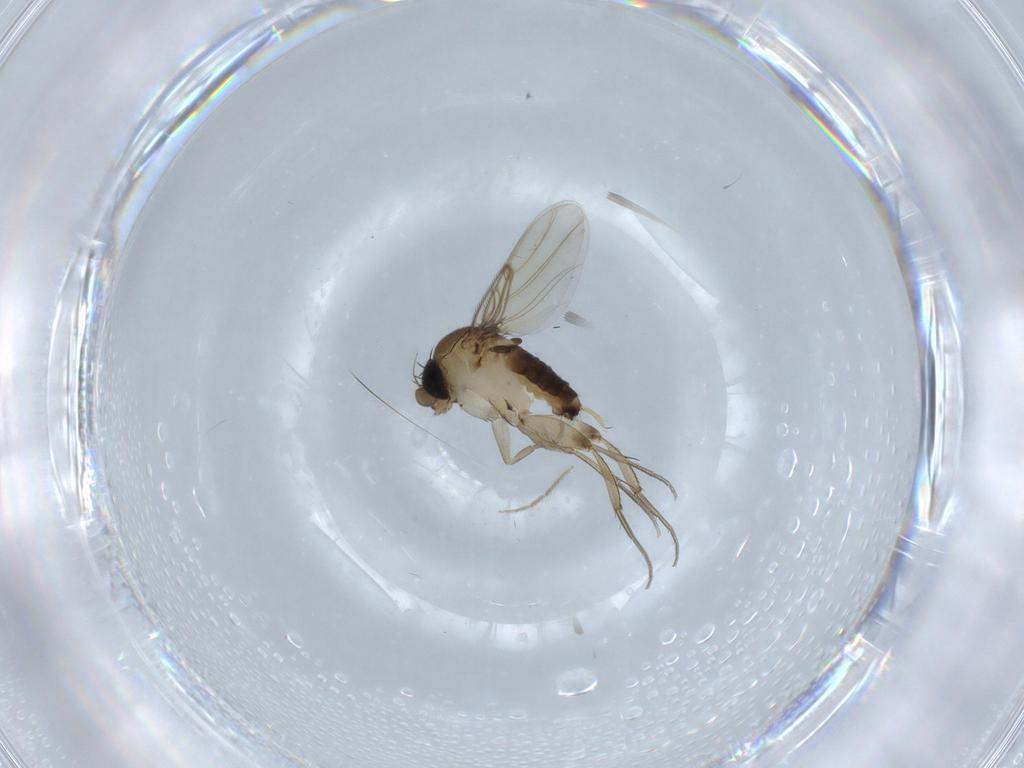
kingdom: Animalia
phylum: Arthropoda
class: Insecta
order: Diptera
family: Phoridae
